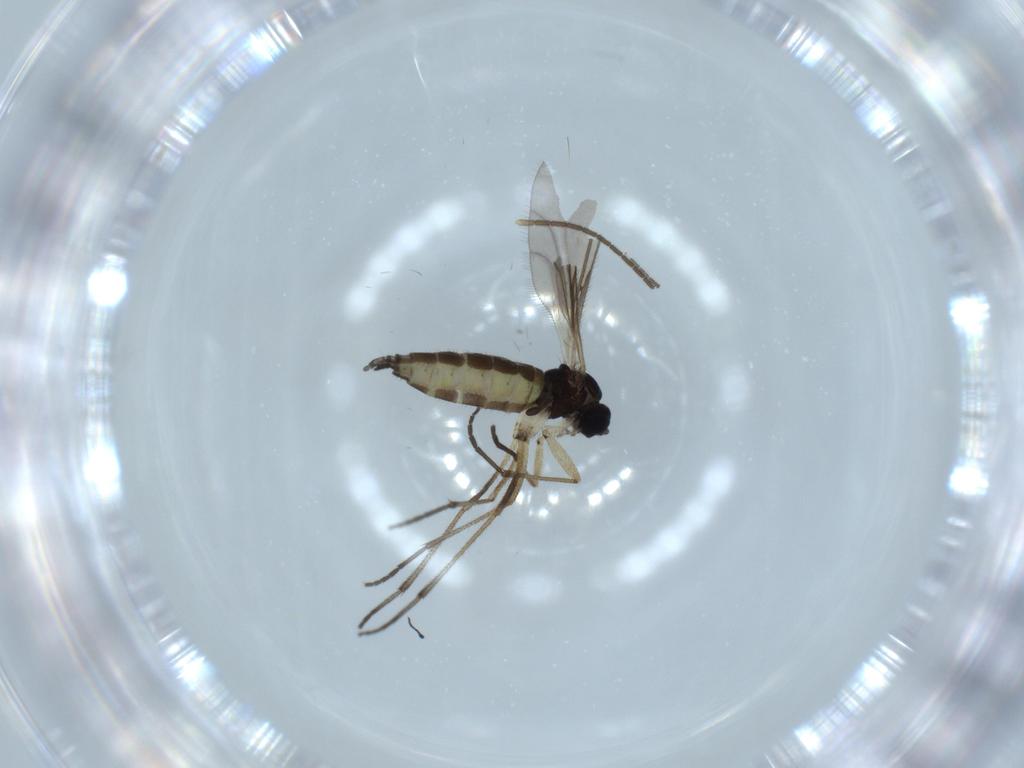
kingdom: Animalia
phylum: Arthropoda
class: Insecta
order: Diptera
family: Sciaridae
